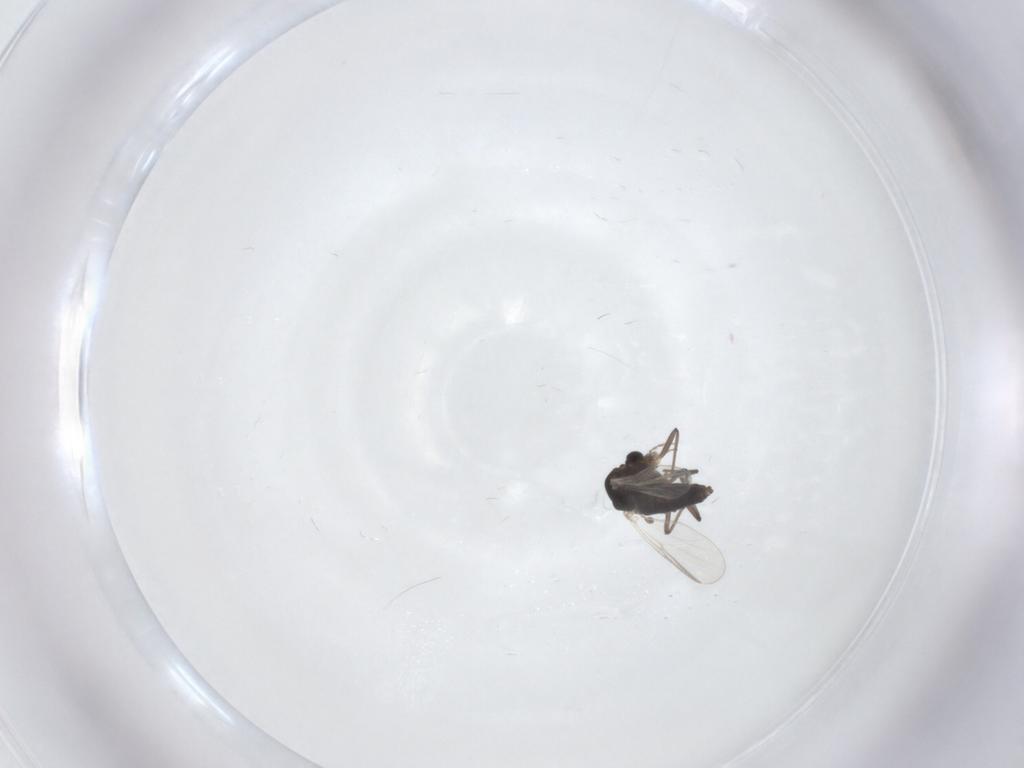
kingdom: Animalia
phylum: Arthropoda
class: Insecta
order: Diptera
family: Chironomidae
